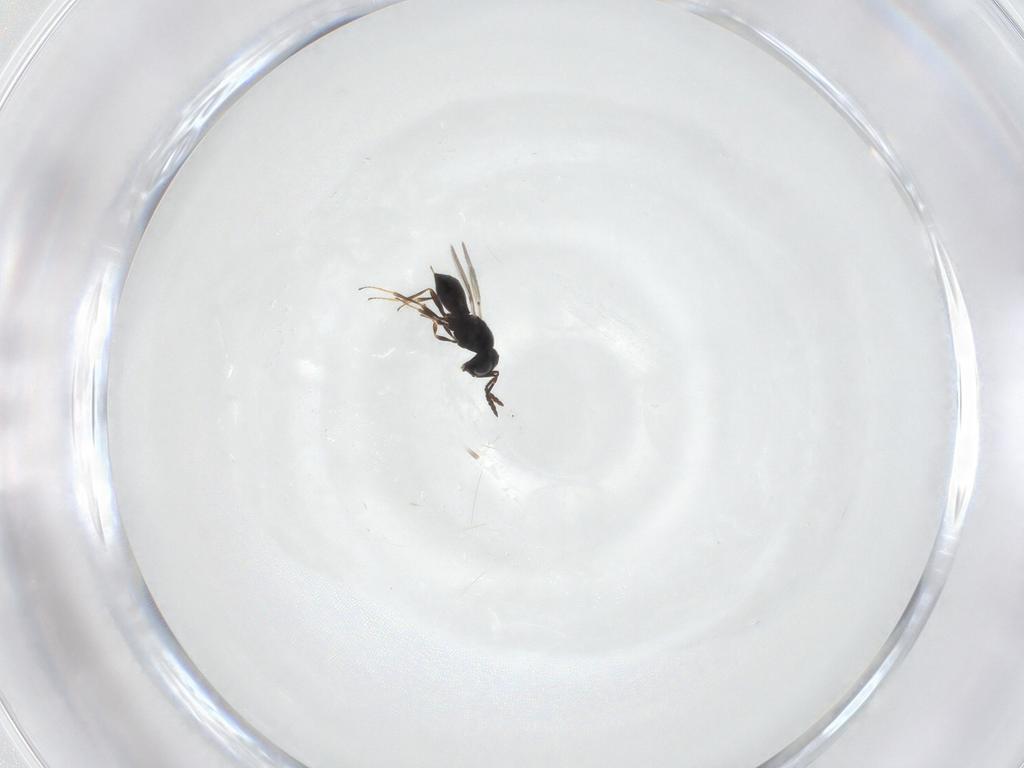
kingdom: Animalia
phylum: Arthropoda
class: Insecta
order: Hymenoptera
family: Scelionidae
